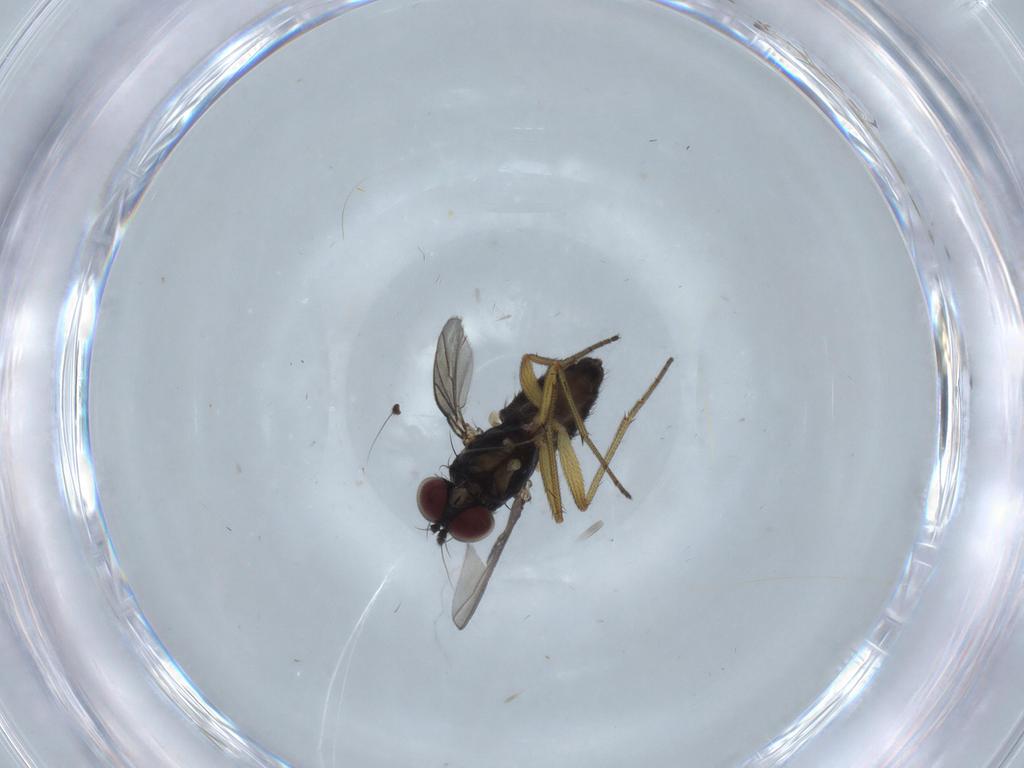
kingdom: Animalia
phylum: Arthropoda
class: Insecta
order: Diptera
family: Dolichopodidae
